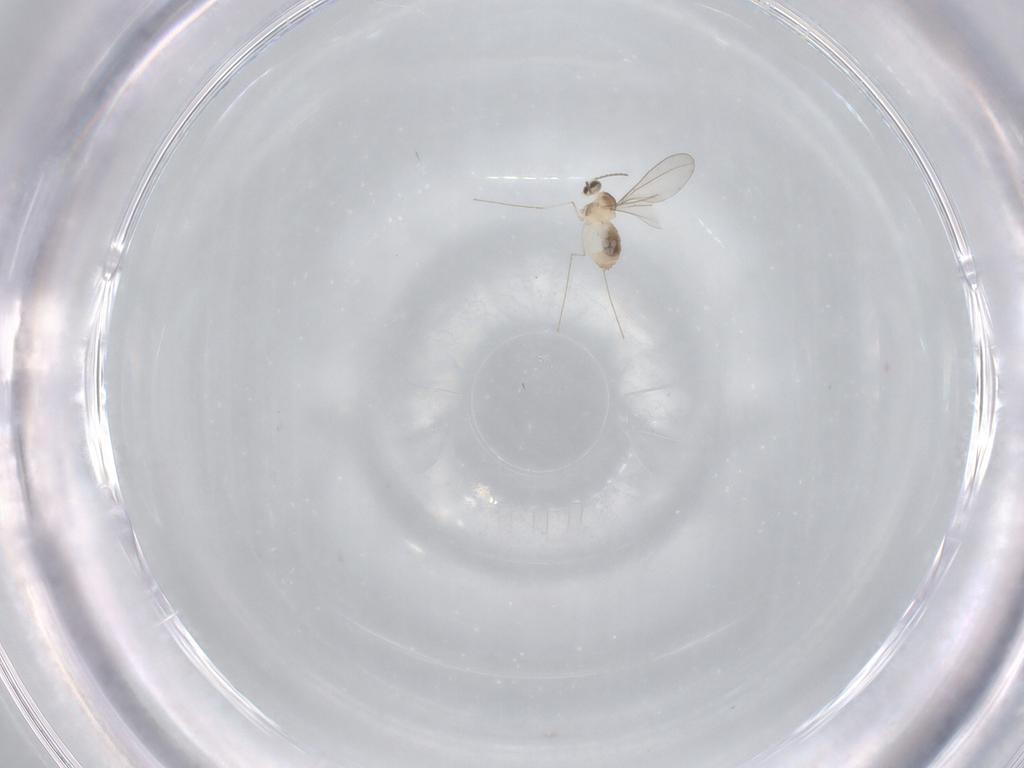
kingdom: Animalia
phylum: Arthropoda
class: Insecta
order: Diptera
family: Cecidomyiidae
